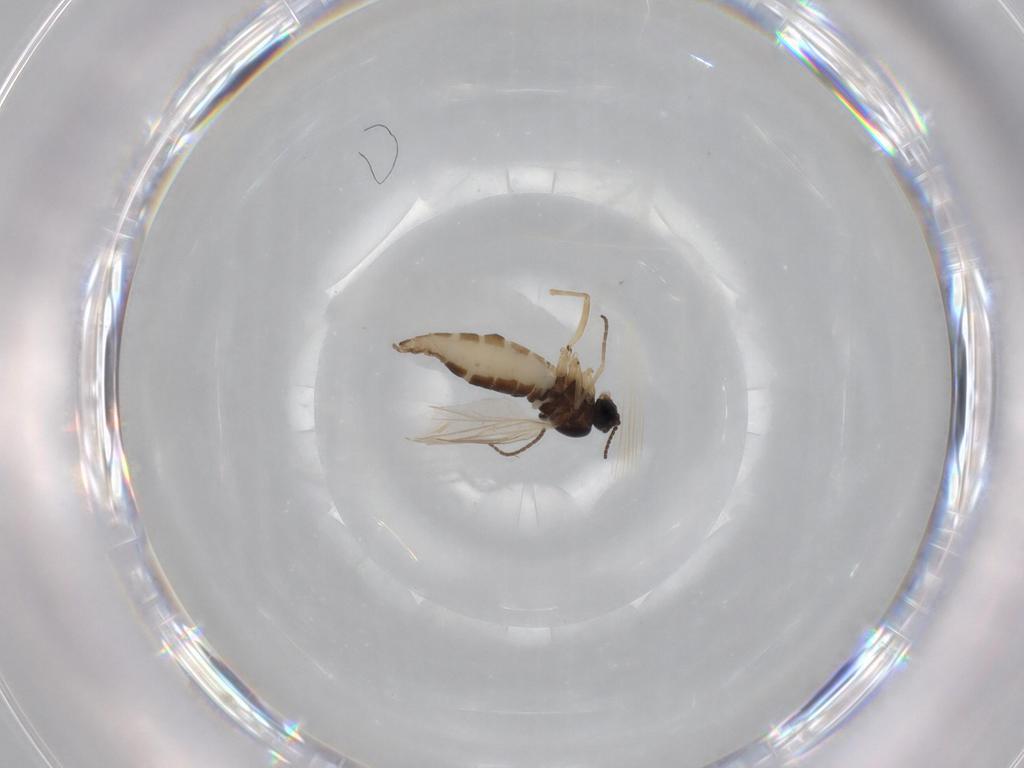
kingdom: Animalia
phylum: Arthropoda
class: Insecta
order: Diptera
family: Sciaridae
